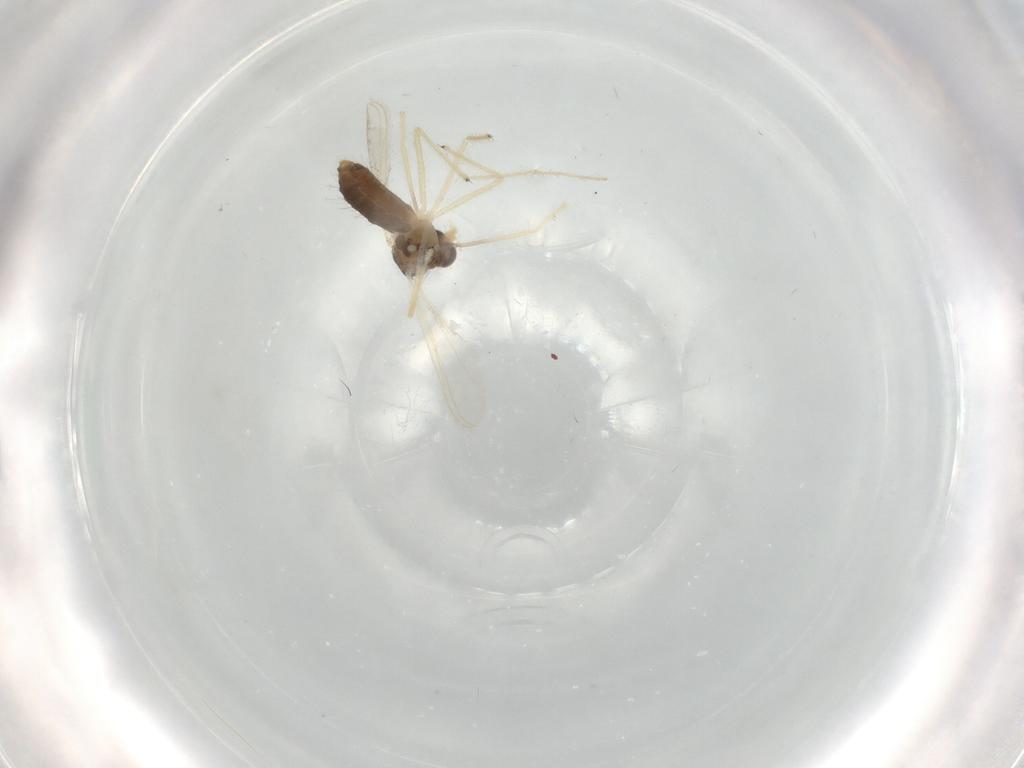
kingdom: Animalia
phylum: Arthropoda
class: Insecta
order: Diptera
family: Chironomidae
